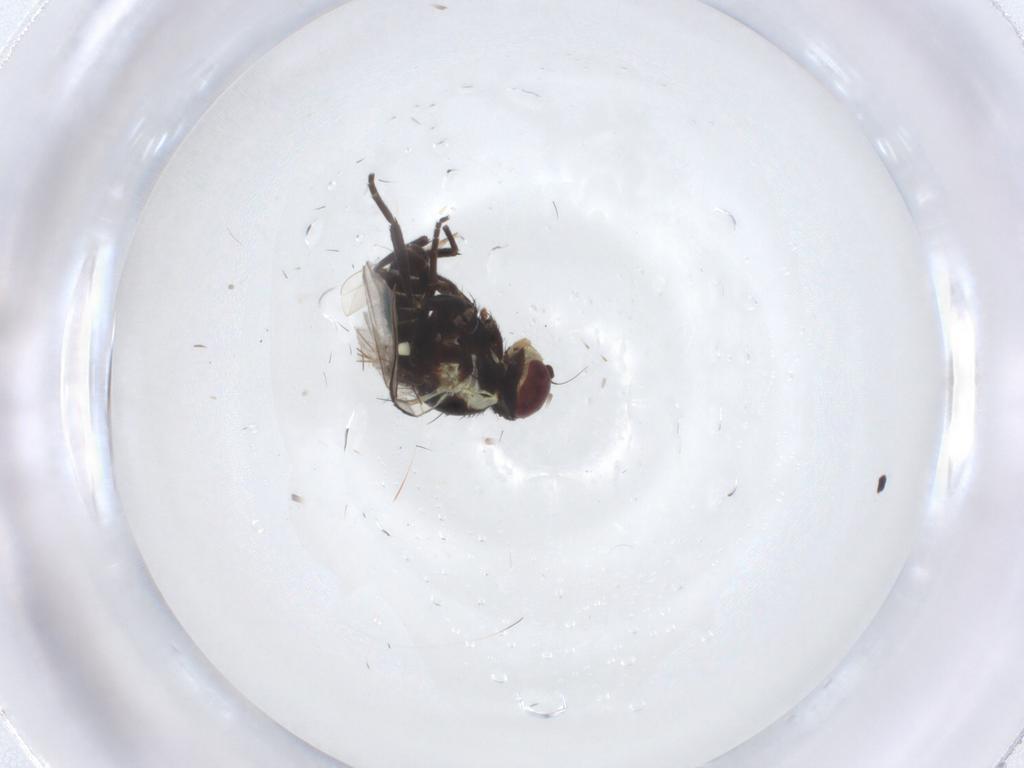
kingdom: Animalia
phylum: Arthropoda
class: Insecta
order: Diptera
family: Agromyzidae
